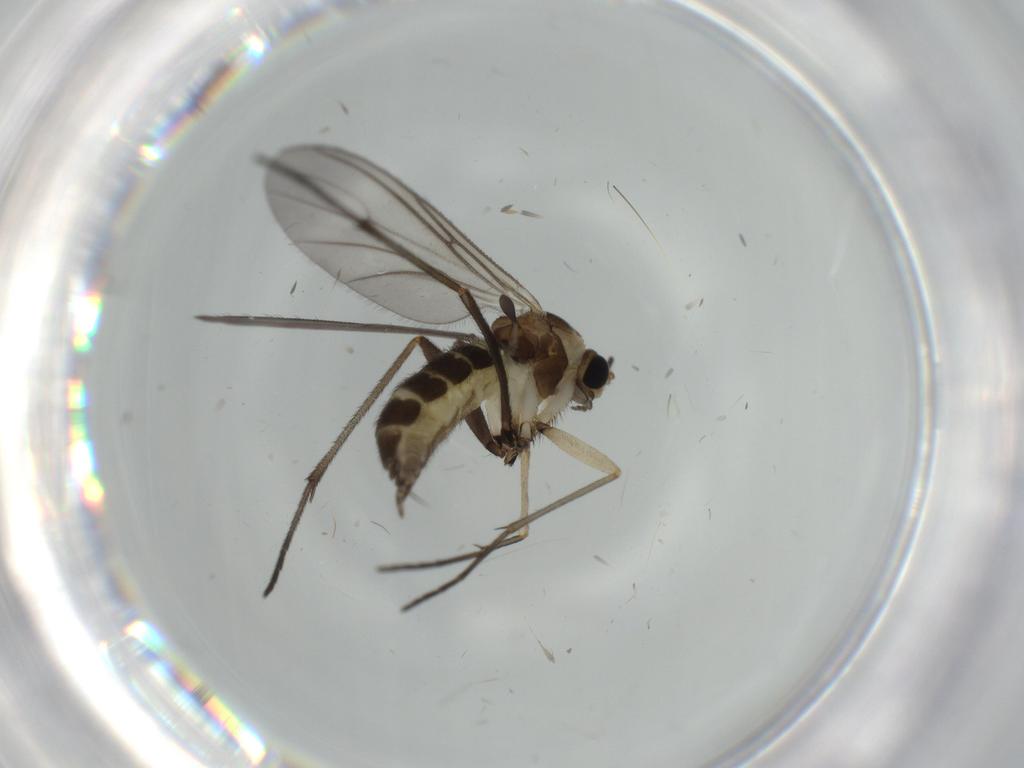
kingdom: Animalia
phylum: Arthropoda
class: Insecta
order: Diptera
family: Sciaridae
